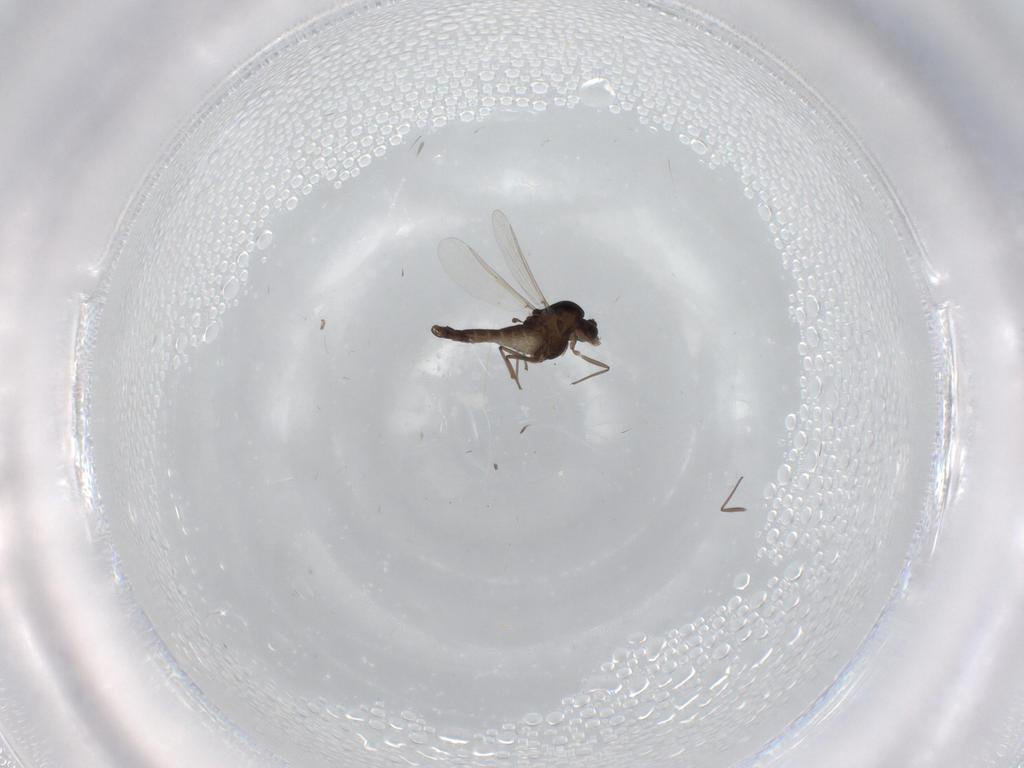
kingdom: Animalia
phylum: Arthropoda
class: Insecta
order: Diptera
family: Chironomidae
